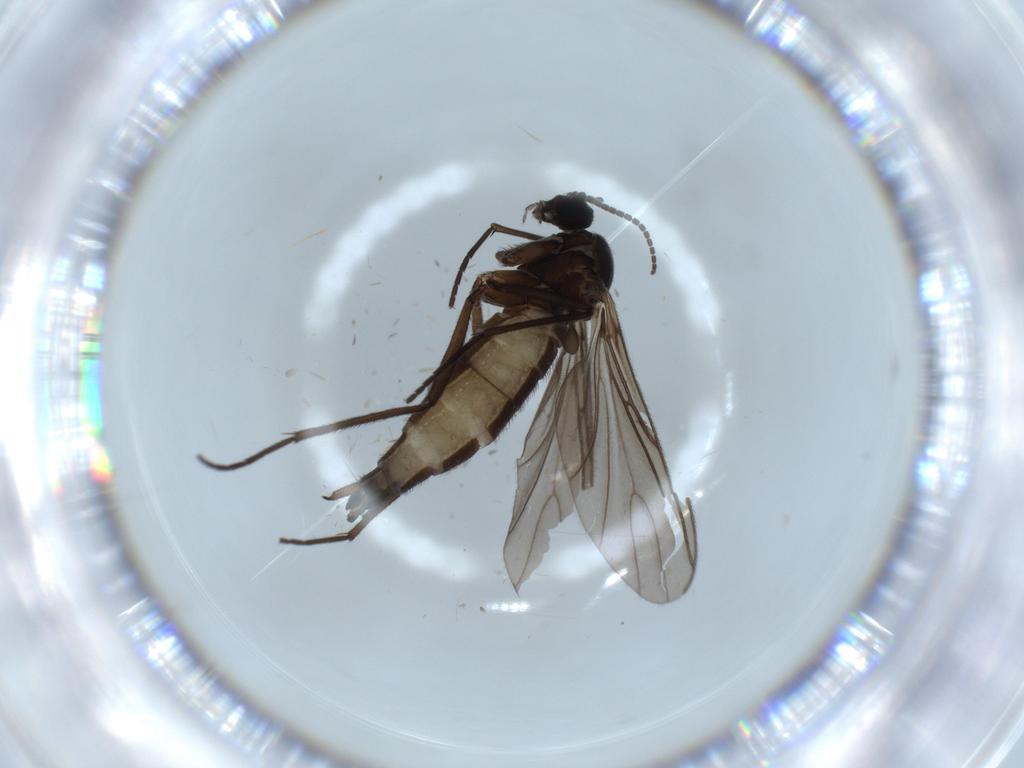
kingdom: Animalia
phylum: Arthropoda
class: Insecta
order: Diptera
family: Sciaridae
